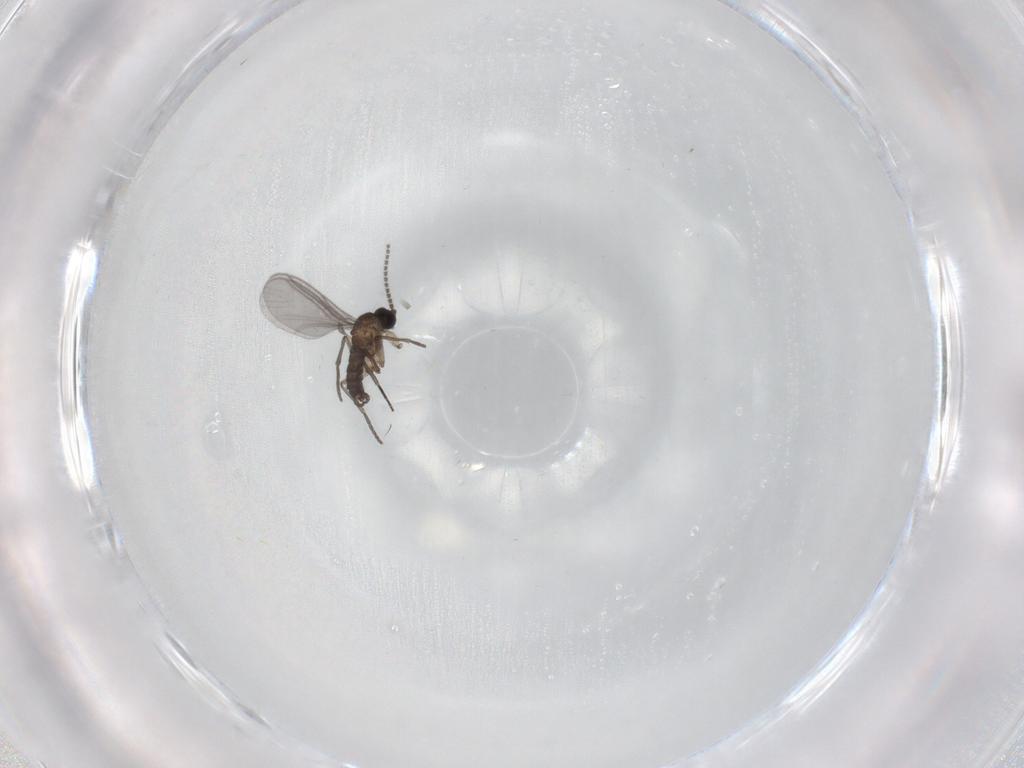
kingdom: Animalia
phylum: Arthropoda
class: Insecta
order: Diptera
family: Sciaridae
